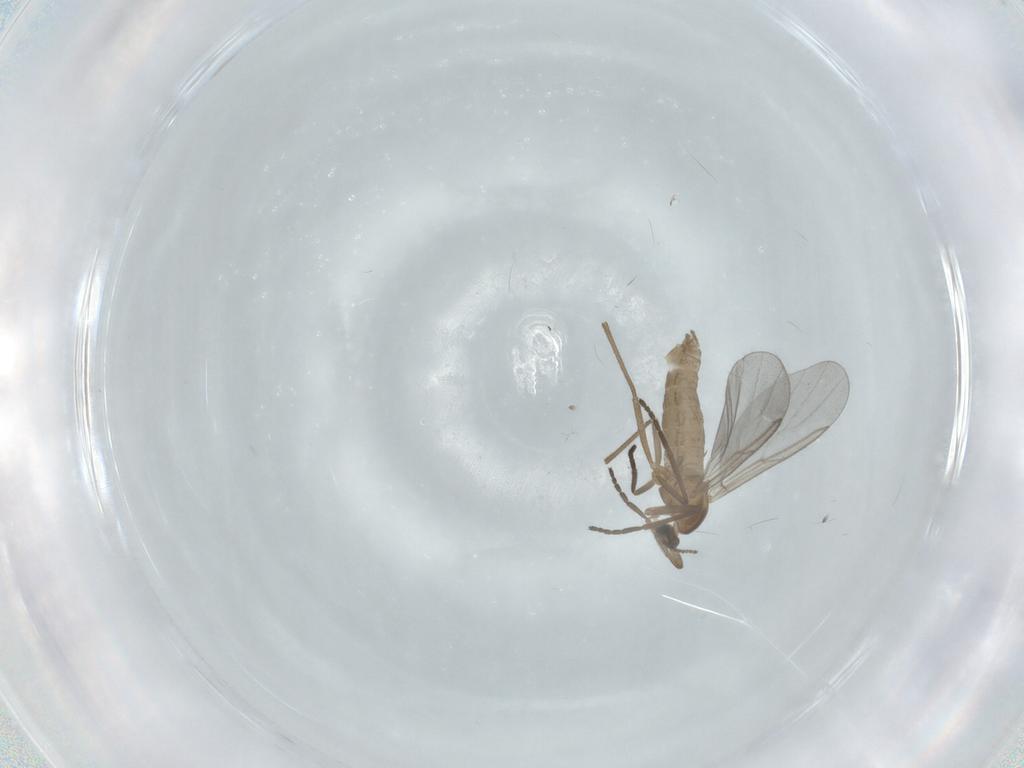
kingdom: Animalia
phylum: Arthropoda
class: Insecta
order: Diptera
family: Cecidomyiidae
